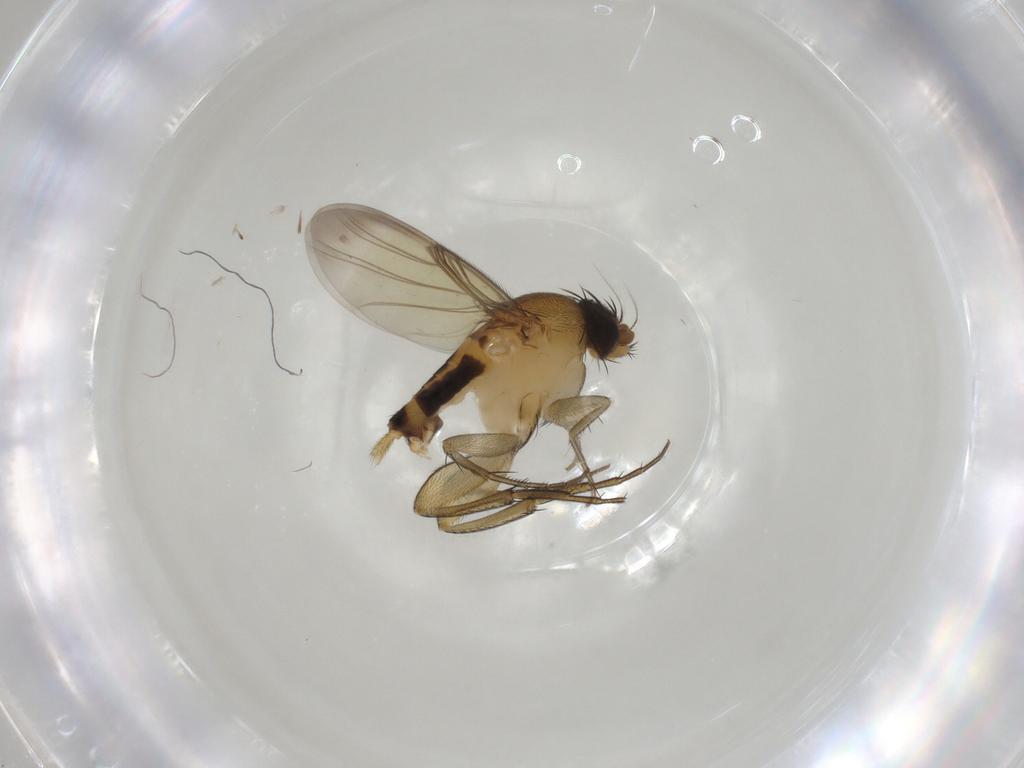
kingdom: Animalia
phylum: Arthropoda
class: Insecta
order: Diptera
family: Phoridae
